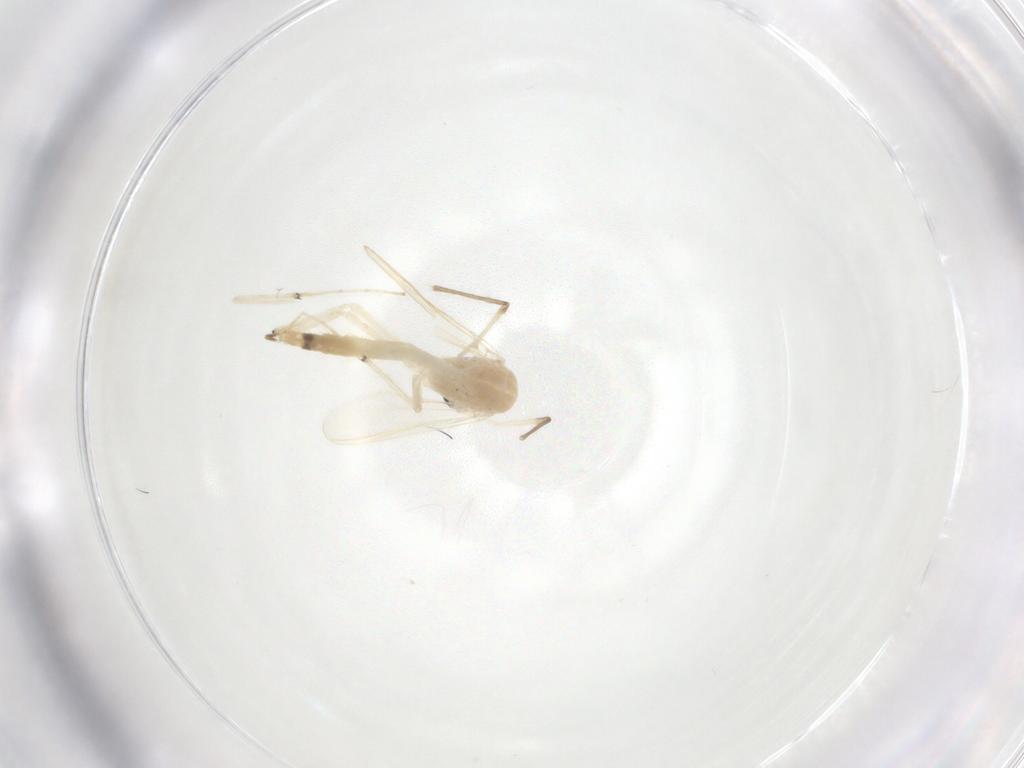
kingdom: Animalia
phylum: Arthropoda
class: Insecta
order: Diptera
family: Chironomidae
